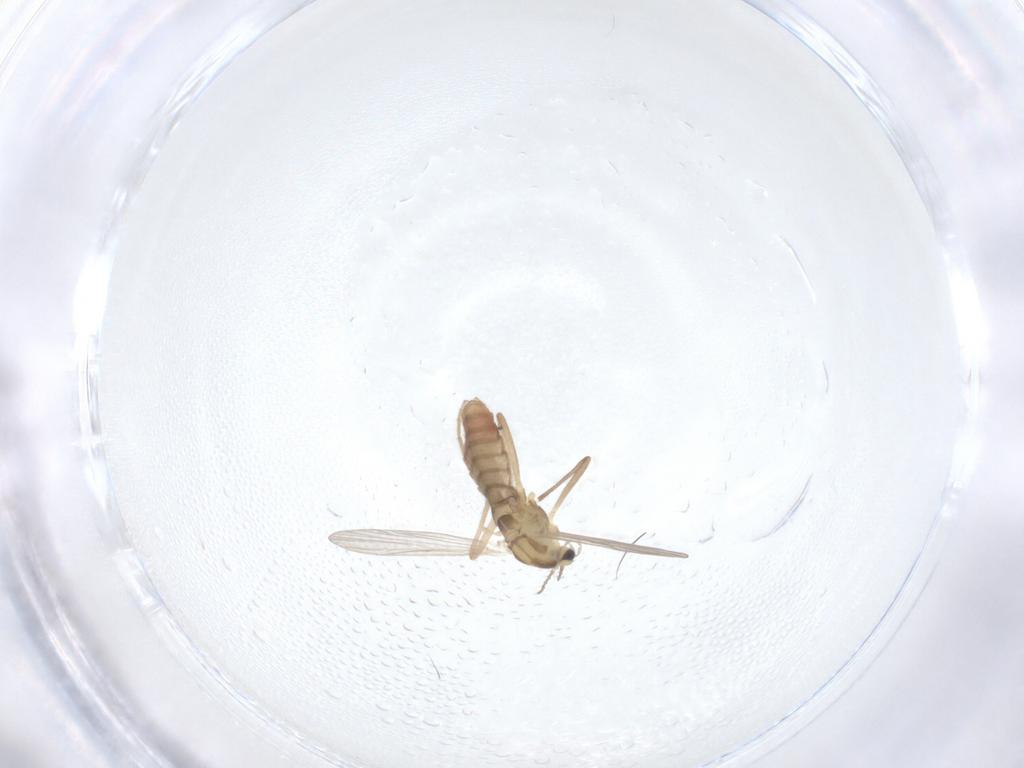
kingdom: Animalia
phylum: Arthropoda
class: Insecta
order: Diptera
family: Chironomidae
